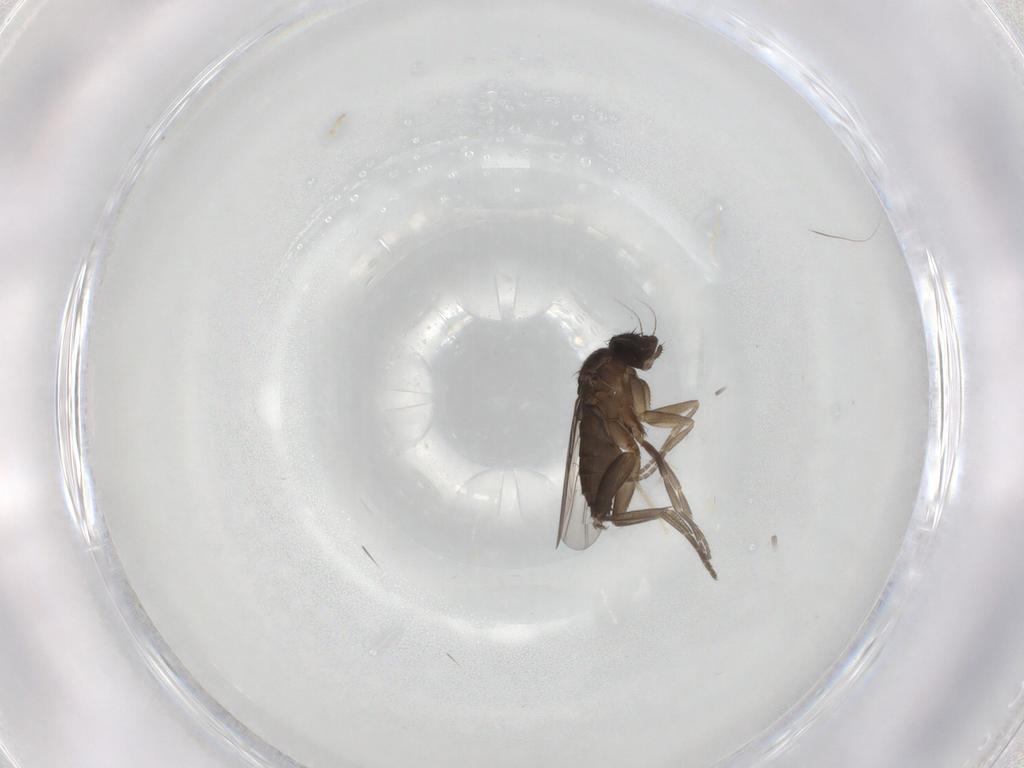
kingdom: Animalia
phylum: Arthropoda
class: Insecta
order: Diptera
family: Phoridae
